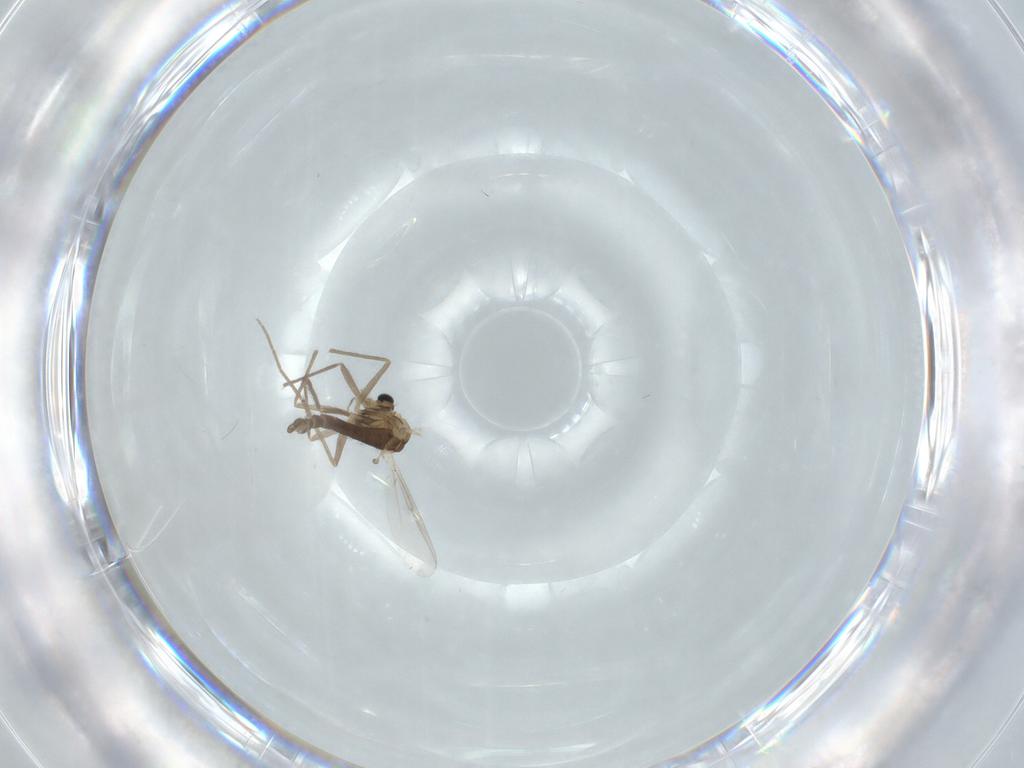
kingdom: Animalia
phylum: Arthropoda
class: Insecta
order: Diptera
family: Chironomidae
